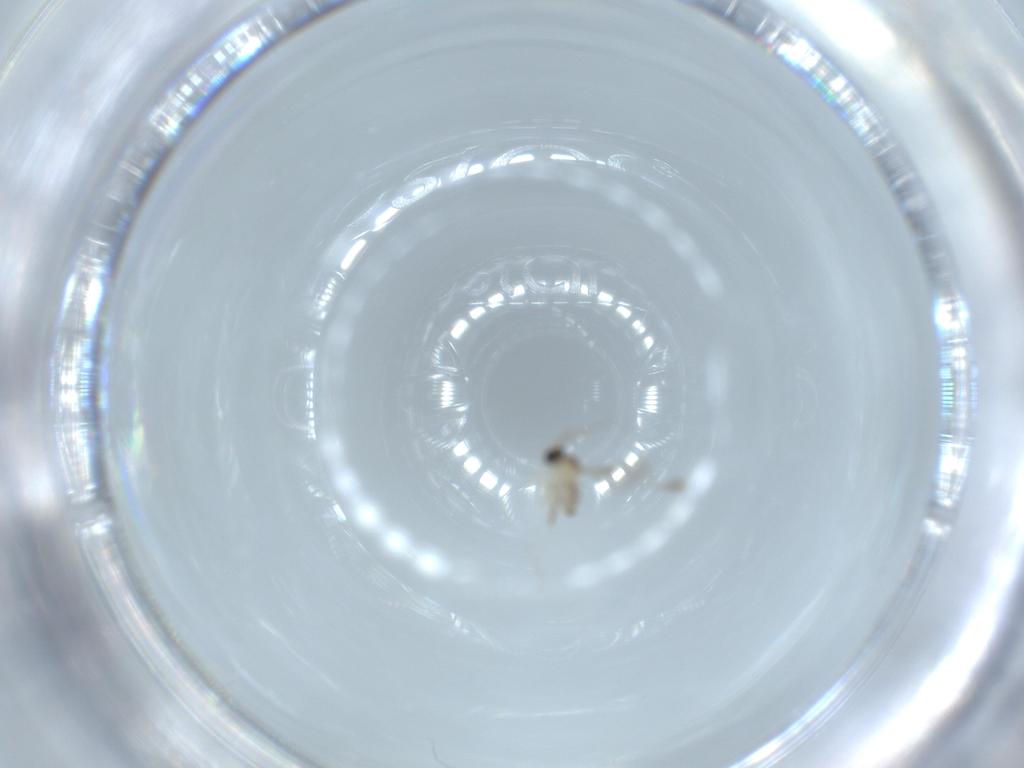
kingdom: Animalia
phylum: Arthropoda
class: Insecta
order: Diptera
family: Cecidomyiidae
